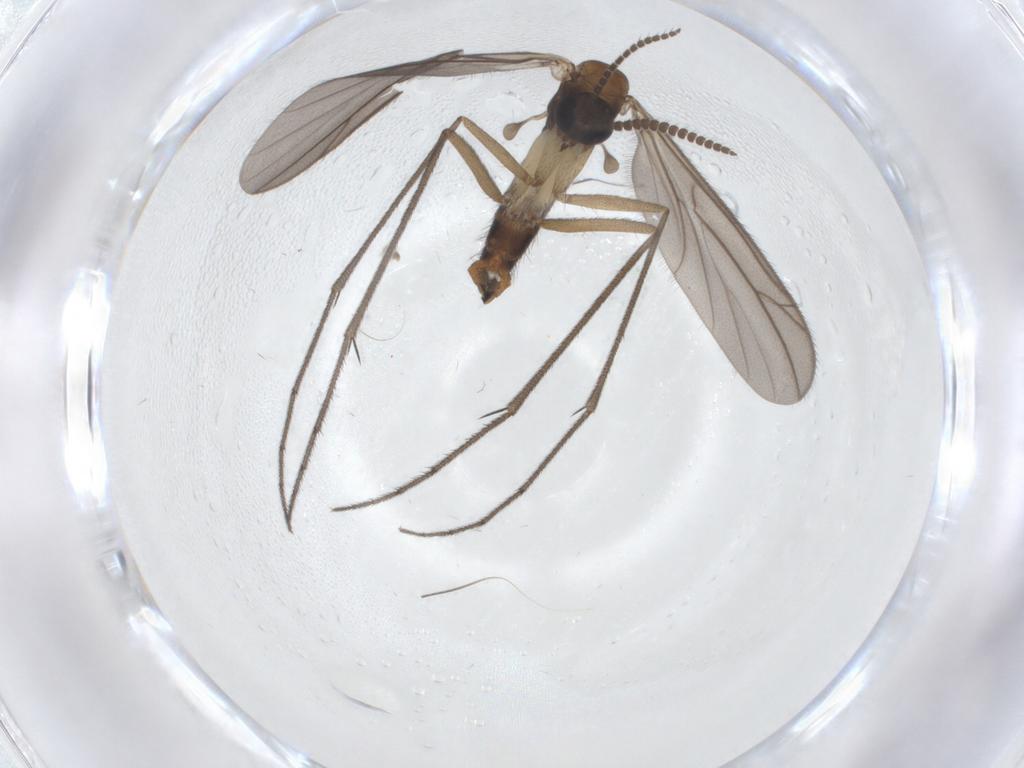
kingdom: Animalia
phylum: Arthropoda
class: Insecta
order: Diptera
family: Ditomyiidae
